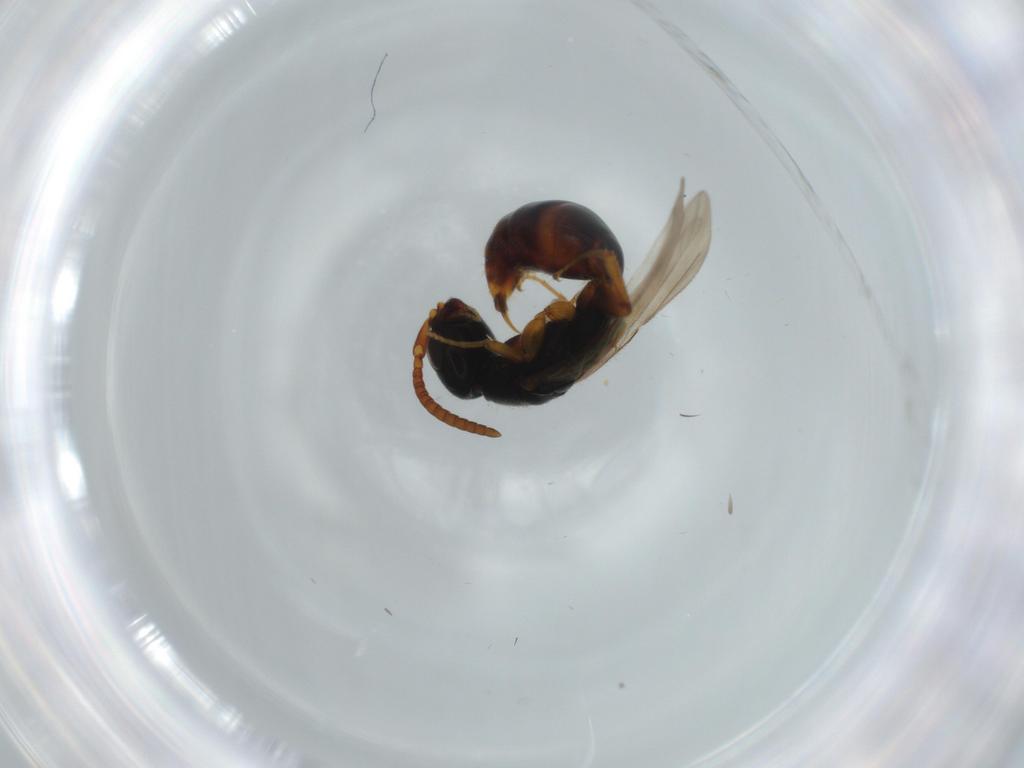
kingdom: Animalia
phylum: Arthropoda
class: Insecta
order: Hymenoptera
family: Bethylidae
